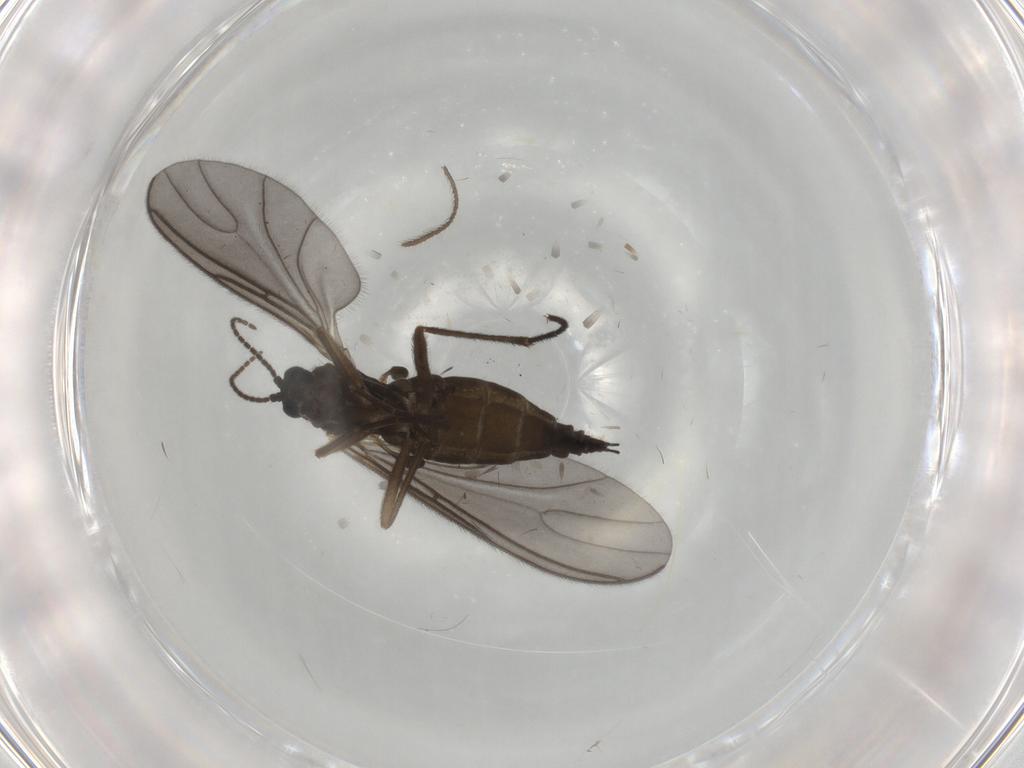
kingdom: Animalia
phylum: Arthropoda
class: Insecta
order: Diptera
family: Sciaridae
